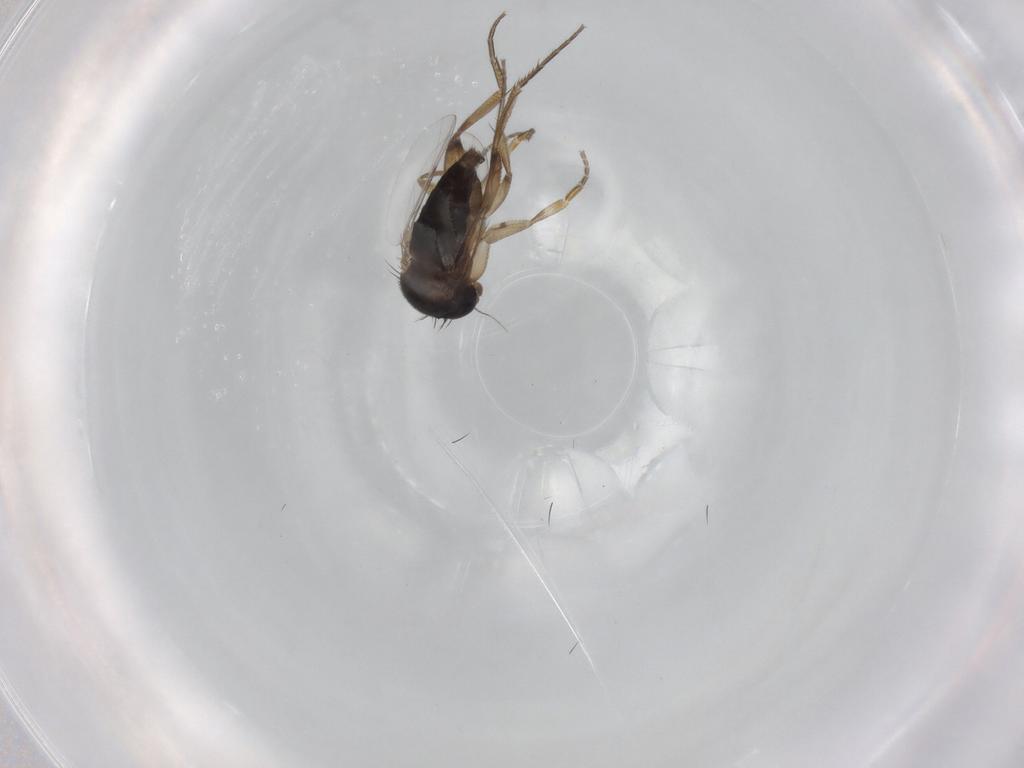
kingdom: Animalia
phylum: Arthropoda
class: Insecta
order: Diptera
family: Phoridae
